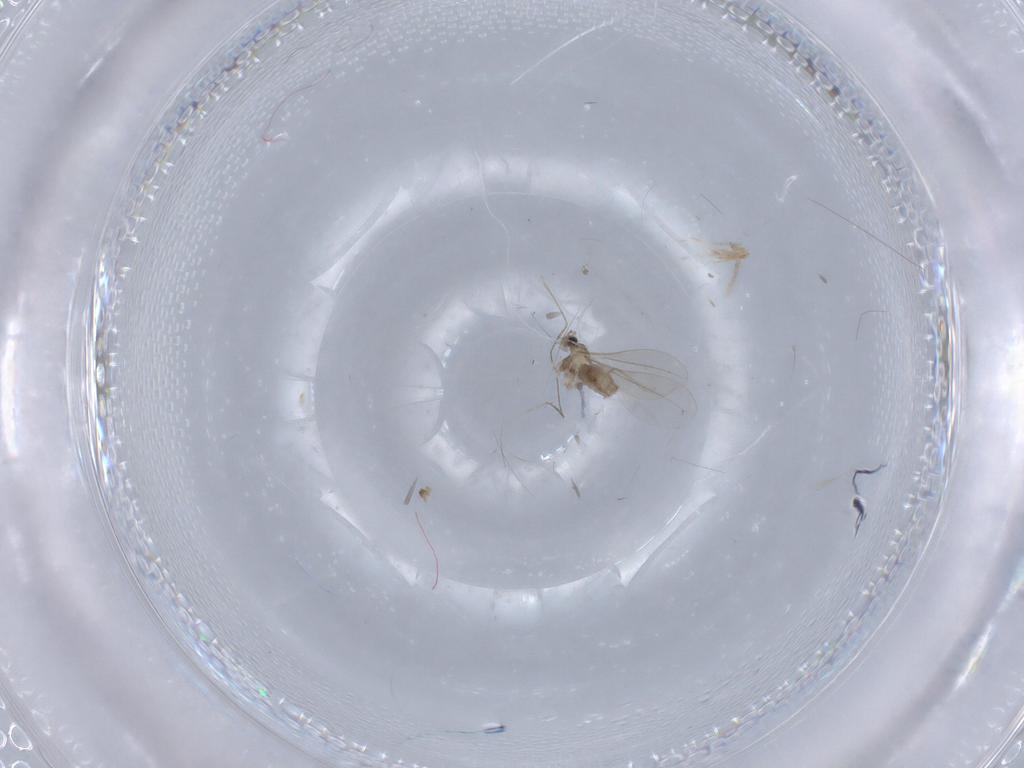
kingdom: Animalia
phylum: Arthropoda
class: Insecta
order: Diptera
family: Cecidomyiidae
